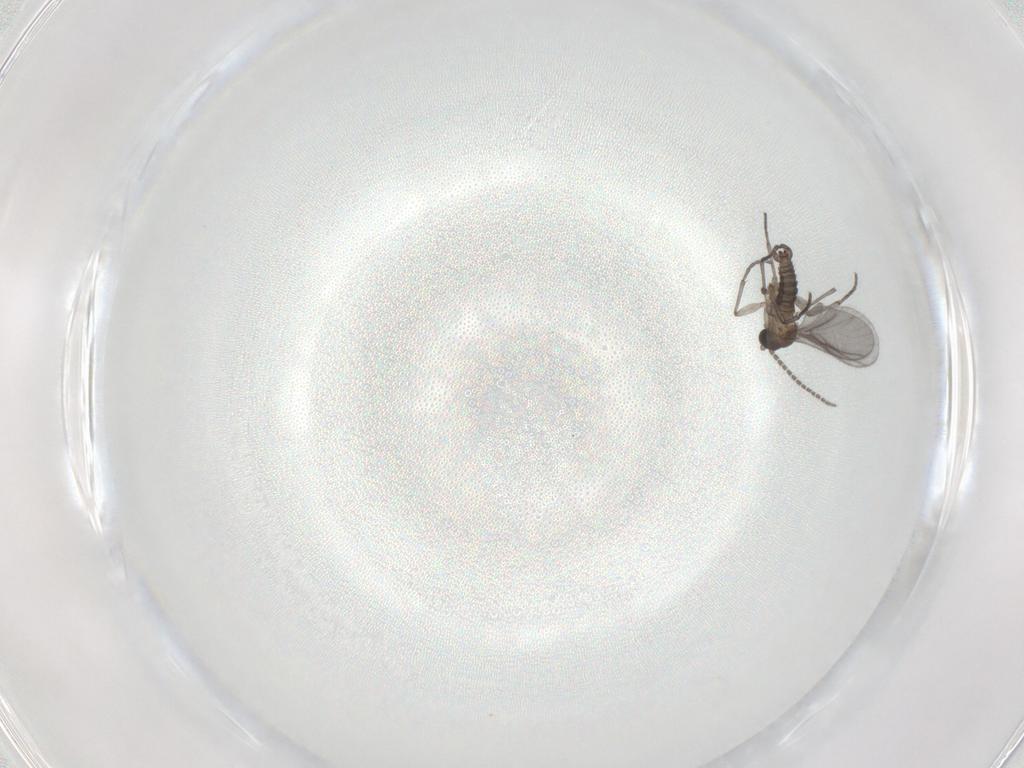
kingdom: Animalia
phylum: Arthropoda
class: Insecta
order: Diptera
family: Sciaridae
